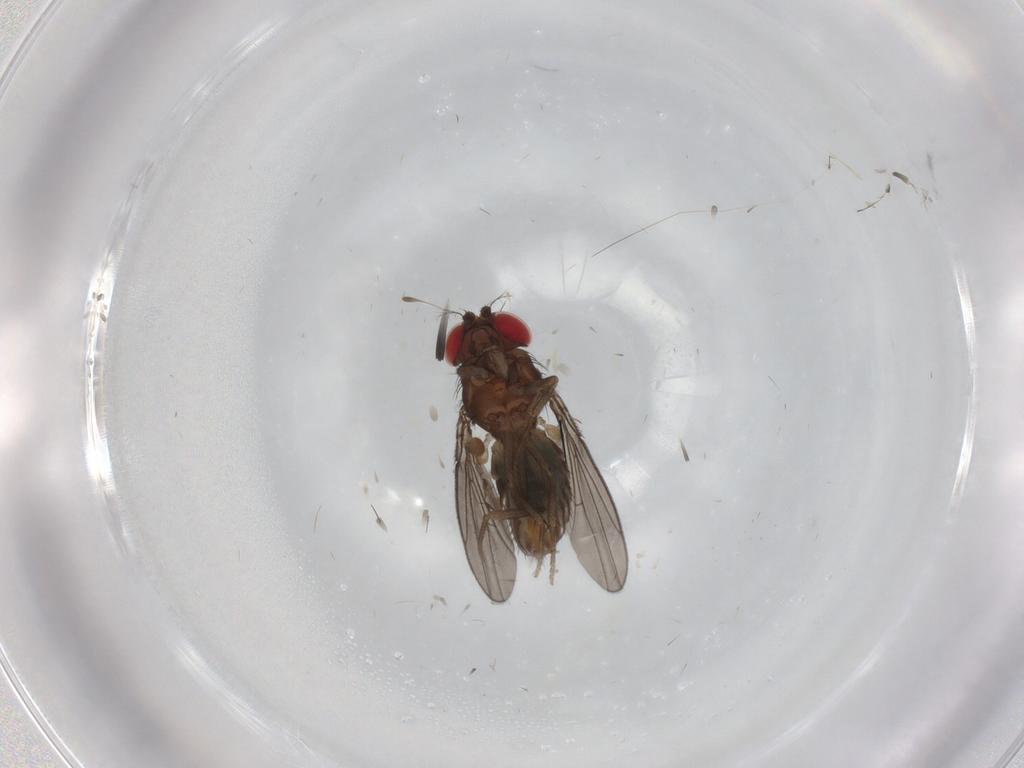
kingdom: Animalia
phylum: Arthropoda
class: Insecta
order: Diptera
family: Drosophilidae
